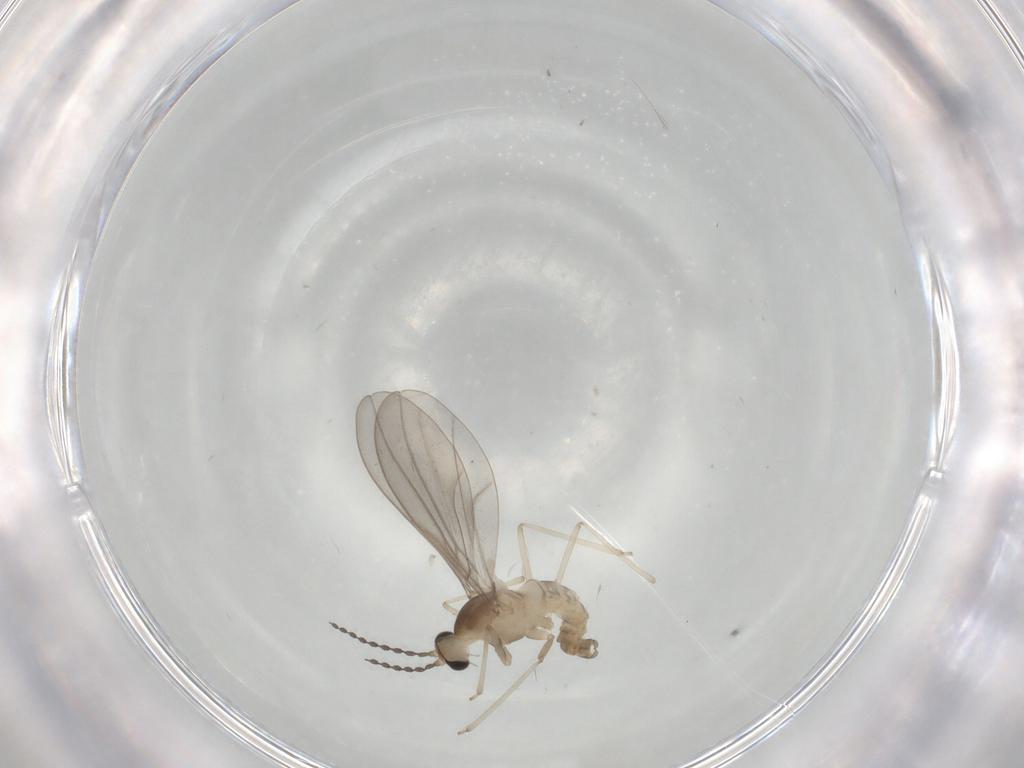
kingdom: Animalia
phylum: Arthropoda
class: Insecta
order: Diptera
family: Cecidomyiidae
